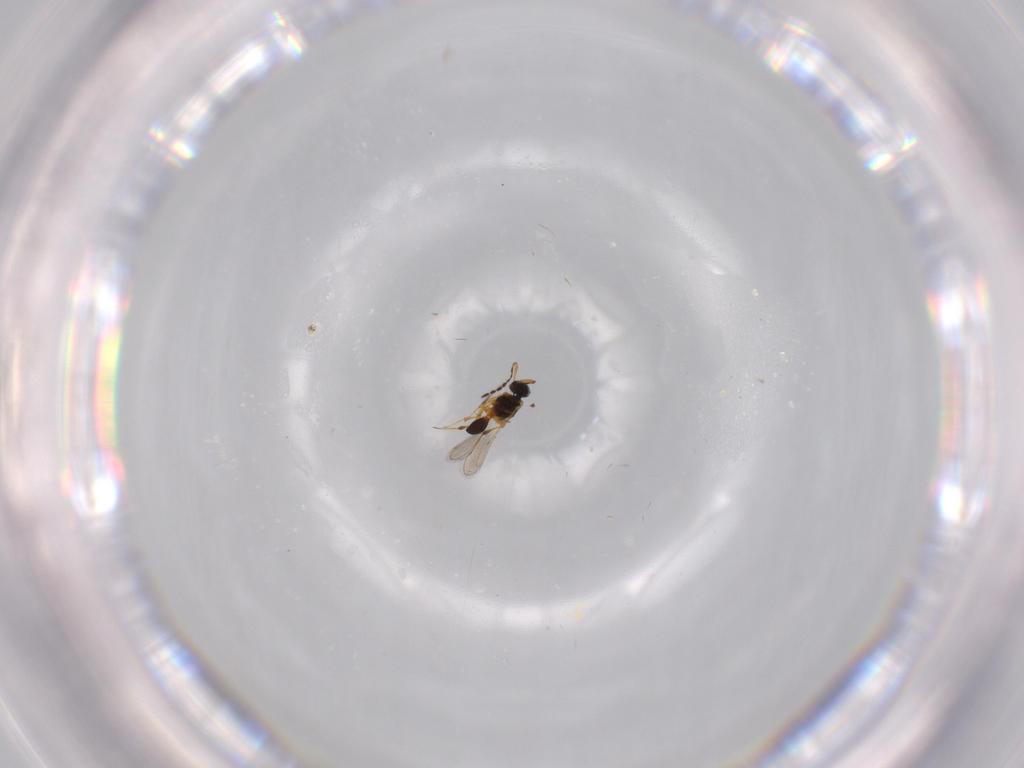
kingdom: Animalia
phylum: Arthropoda
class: Insecta
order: Hymenoptera
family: Platygastridae
